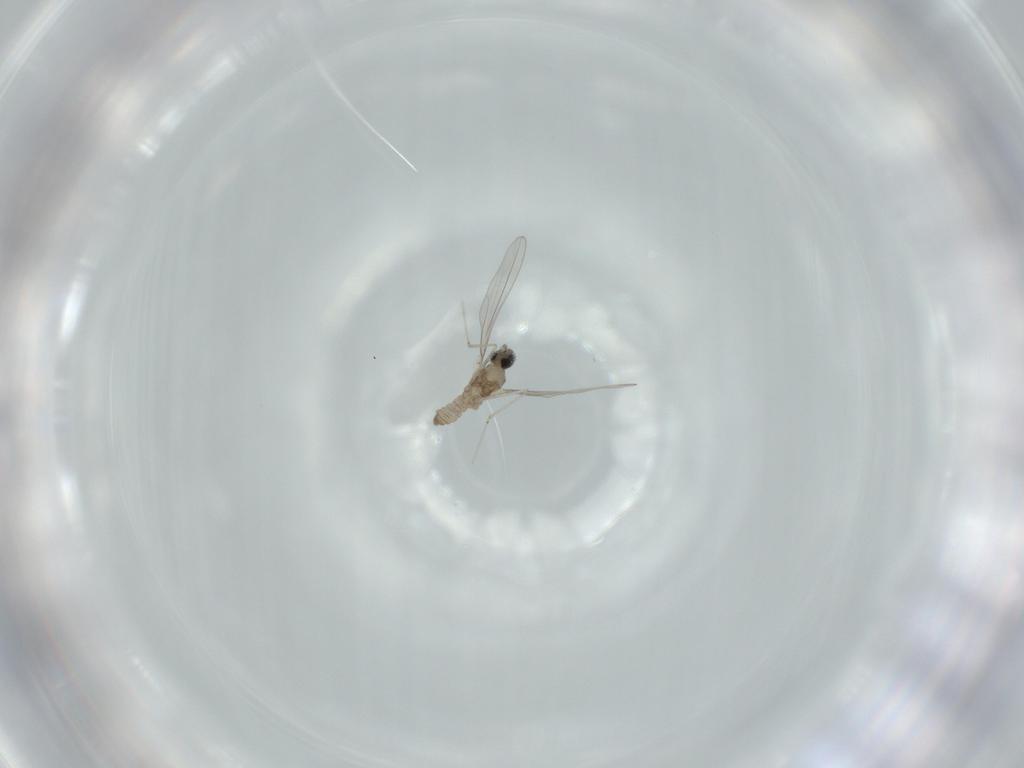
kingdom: Animalia
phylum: Arthropoda
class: Insecta
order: Diptera
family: Cecidomyiidae
